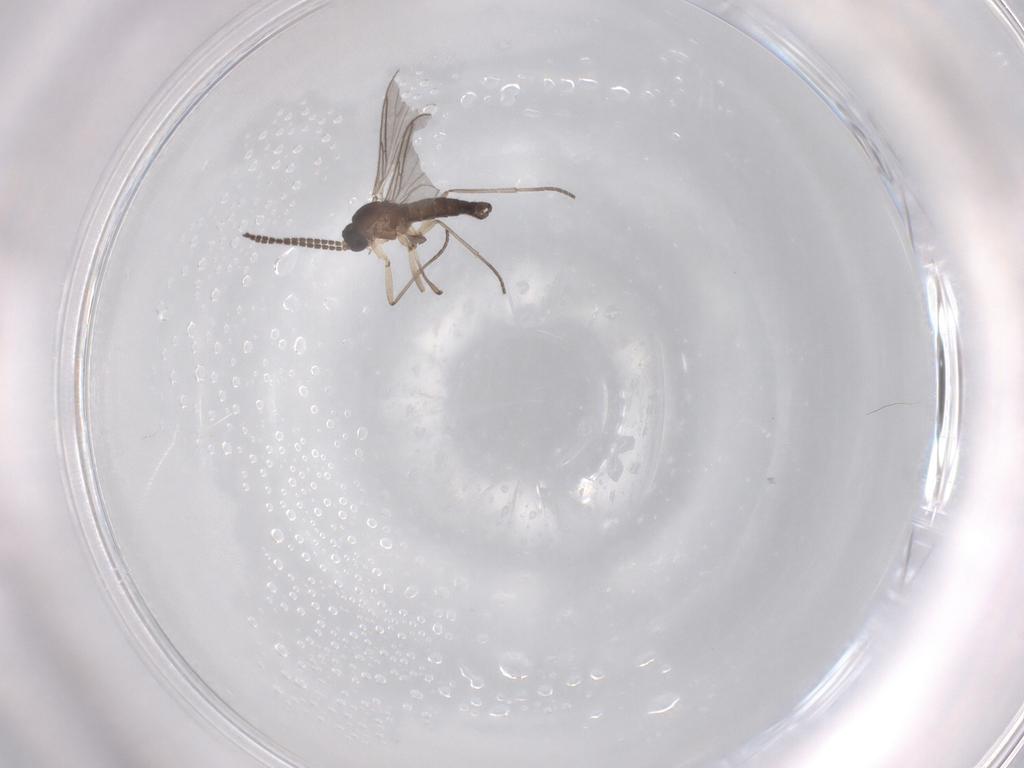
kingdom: Animalia
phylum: Arthropoda
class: Insecta
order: Diptera
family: Sciaridae
